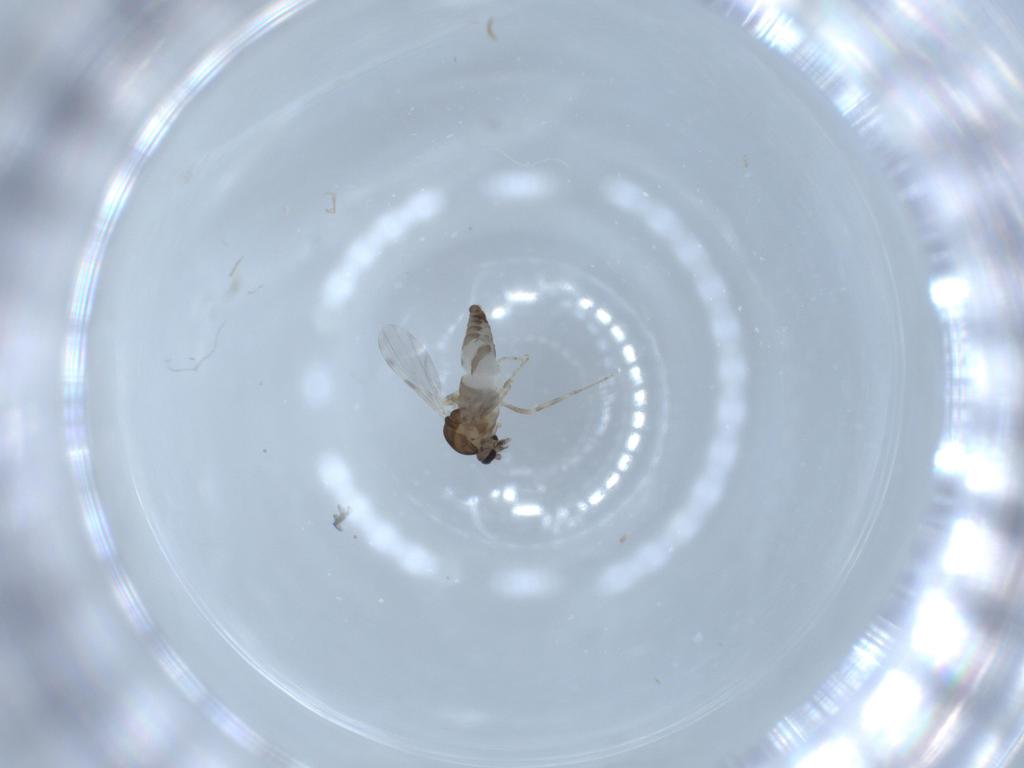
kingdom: Animalia
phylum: Arthropoda
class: Insecta
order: Diptera
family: Ceratopogonidae
